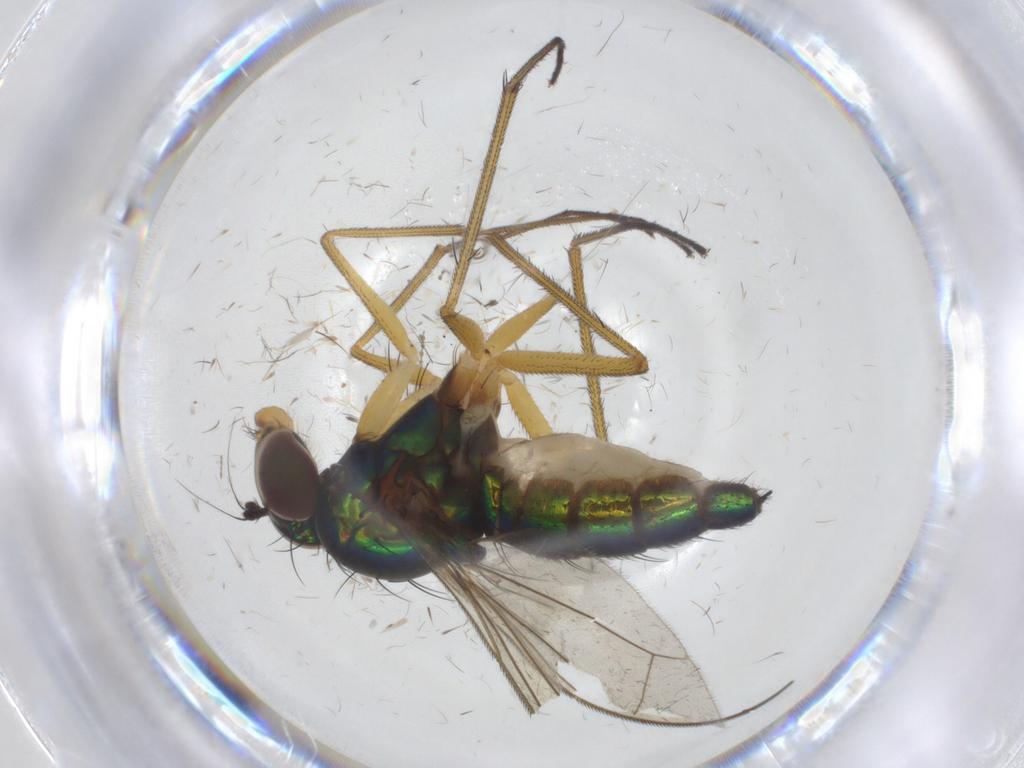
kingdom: Animalia
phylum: Arthropoda
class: Insecta
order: Diptera
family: Dolichopodidae
